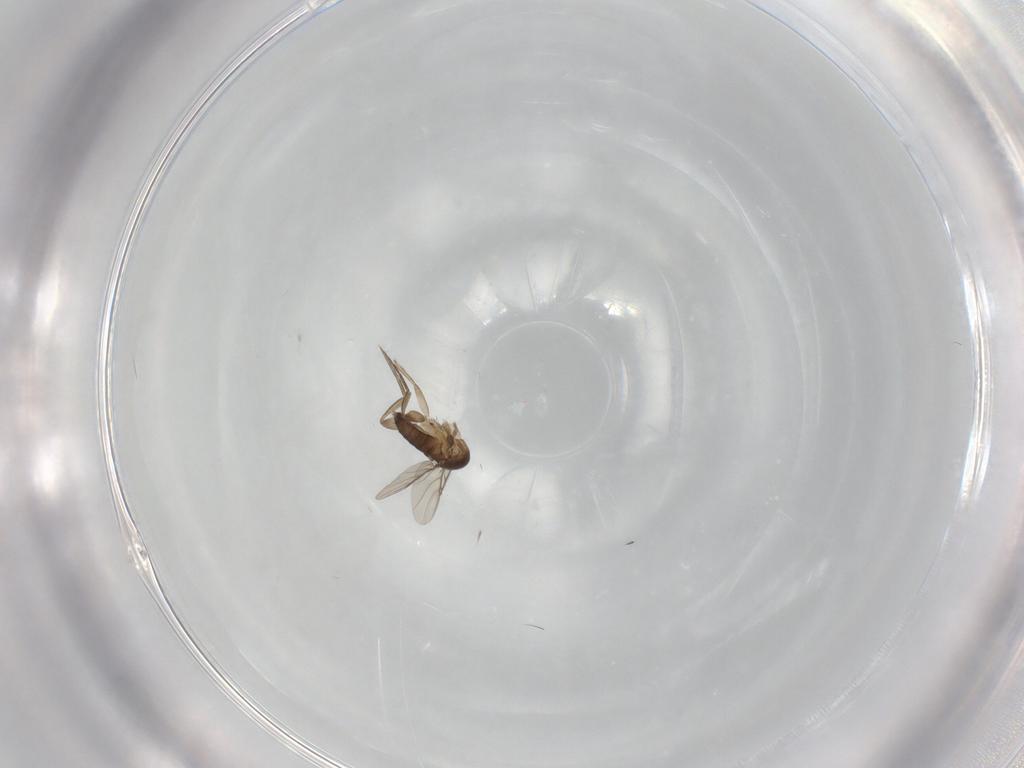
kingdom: Animalia
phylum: Arthropoda
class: Insecta
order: Diptera
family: Phoridae
